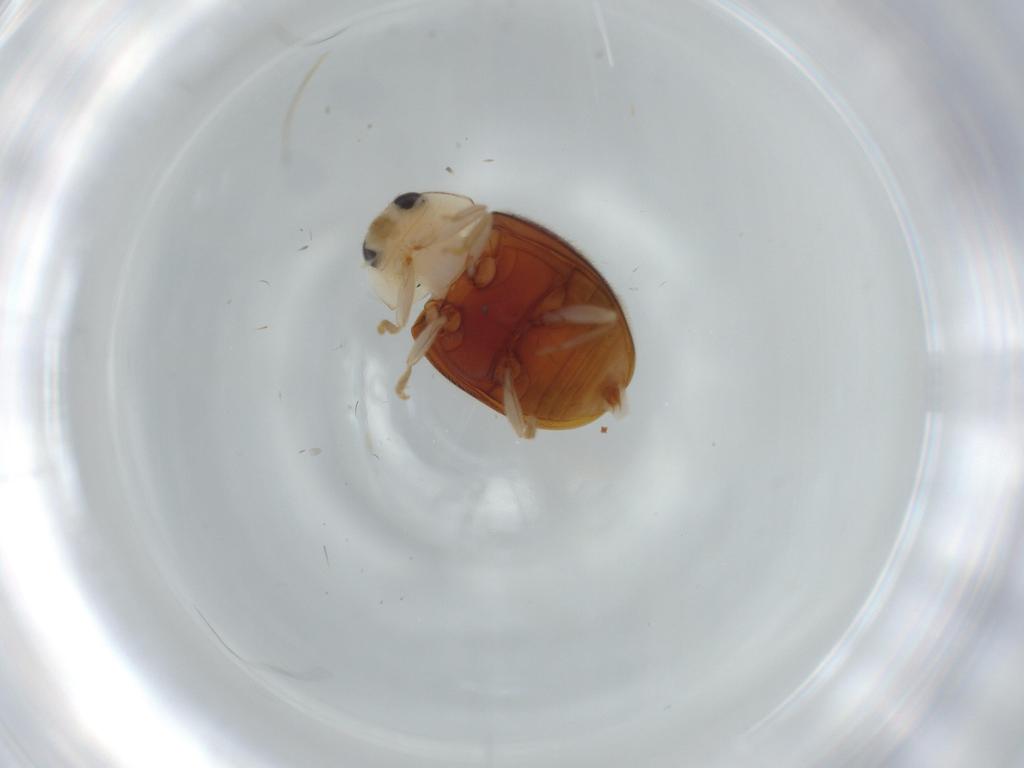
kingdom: Animalia
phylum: Arthropoda
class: Insecta
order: Coleoptera
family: Coccinellidae
